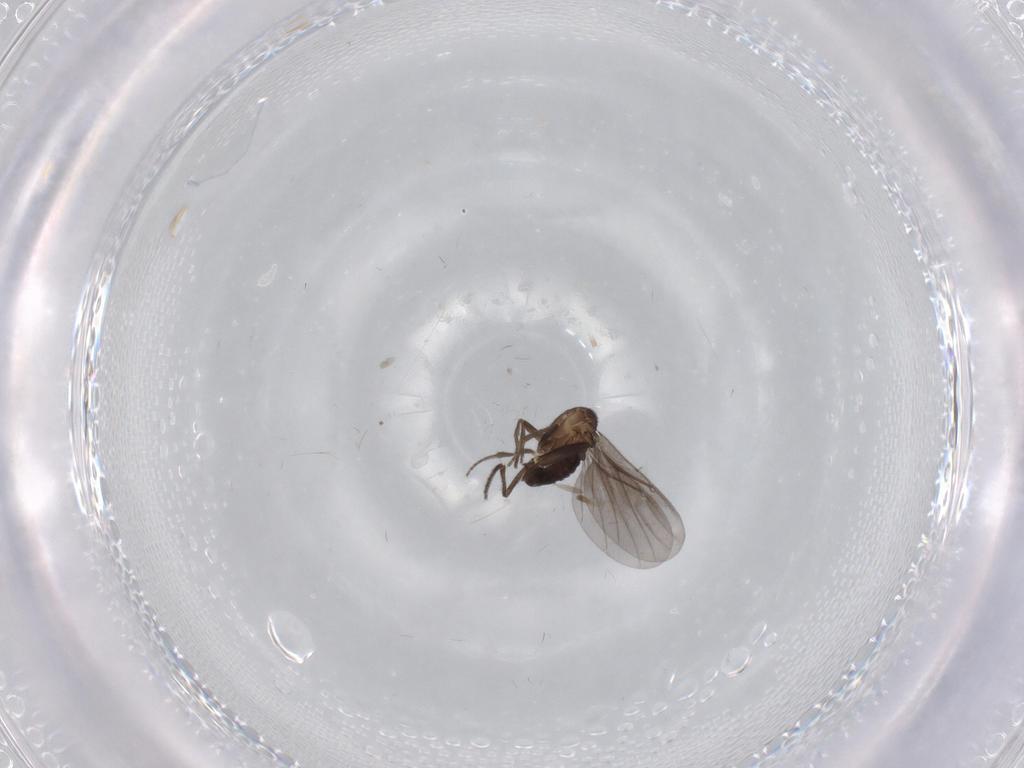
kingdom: Animalia
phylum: Arthropoda
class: Insecta
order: Diptera
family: Phoridae
